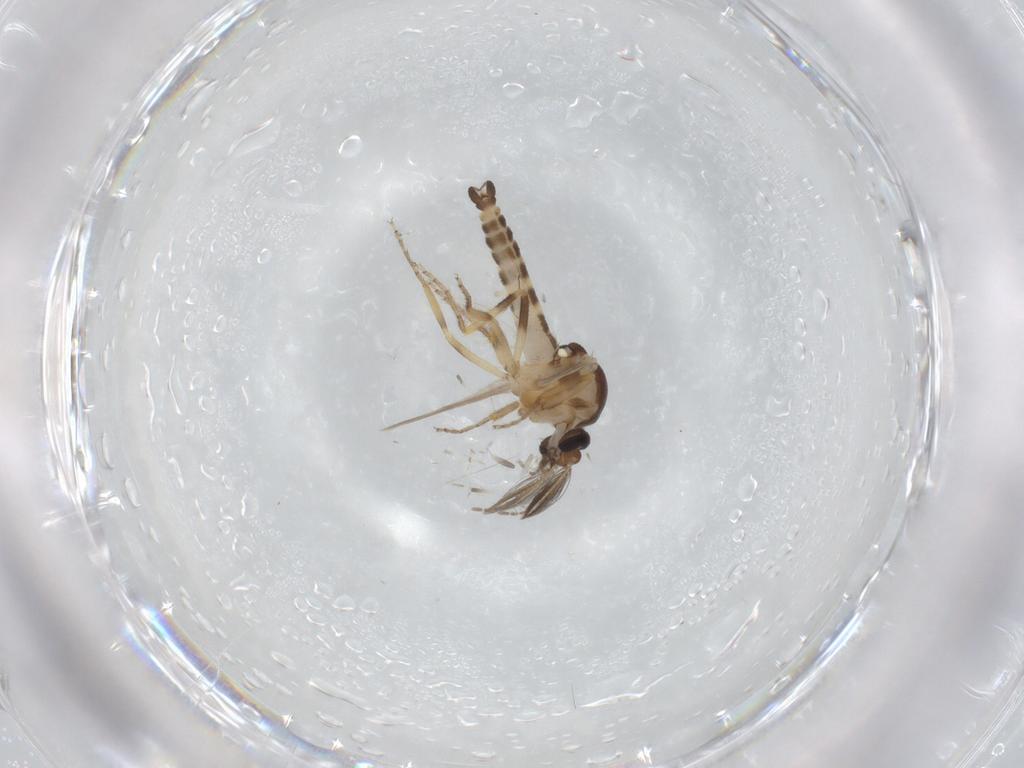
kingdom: Animalia
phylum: Arthropoda
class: Insecta
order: Diptera
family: Ceratopogonidae
